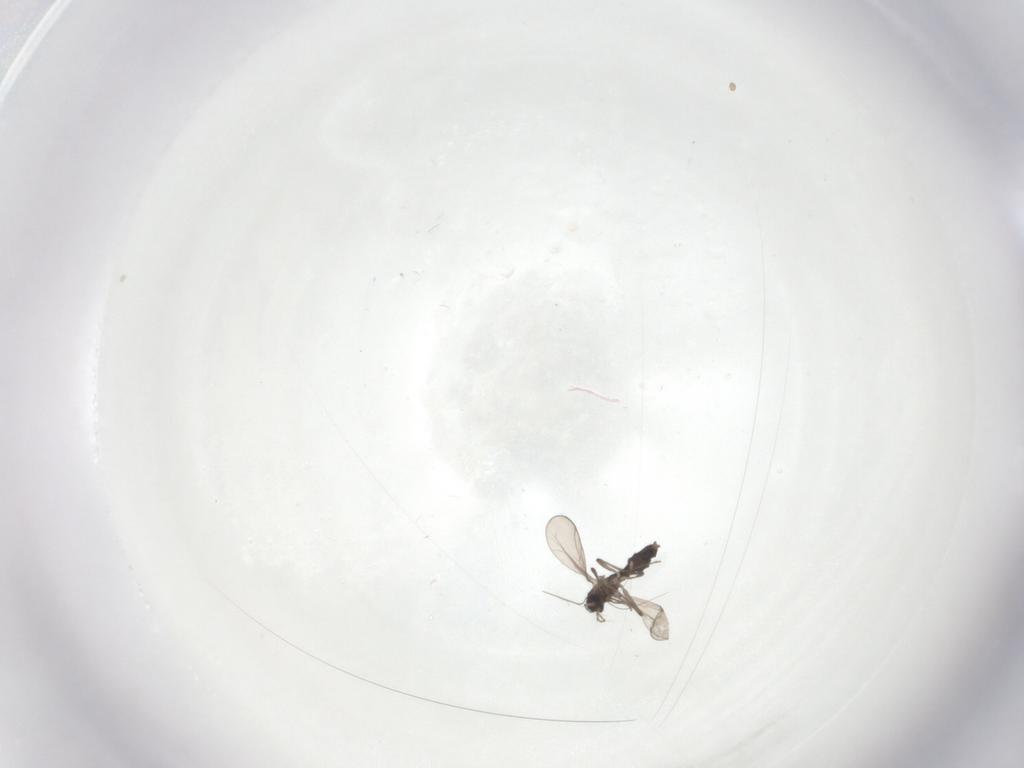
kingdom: Animalia
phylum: Arthropoda
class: Insecta
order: Diptera
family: Chironomidae
